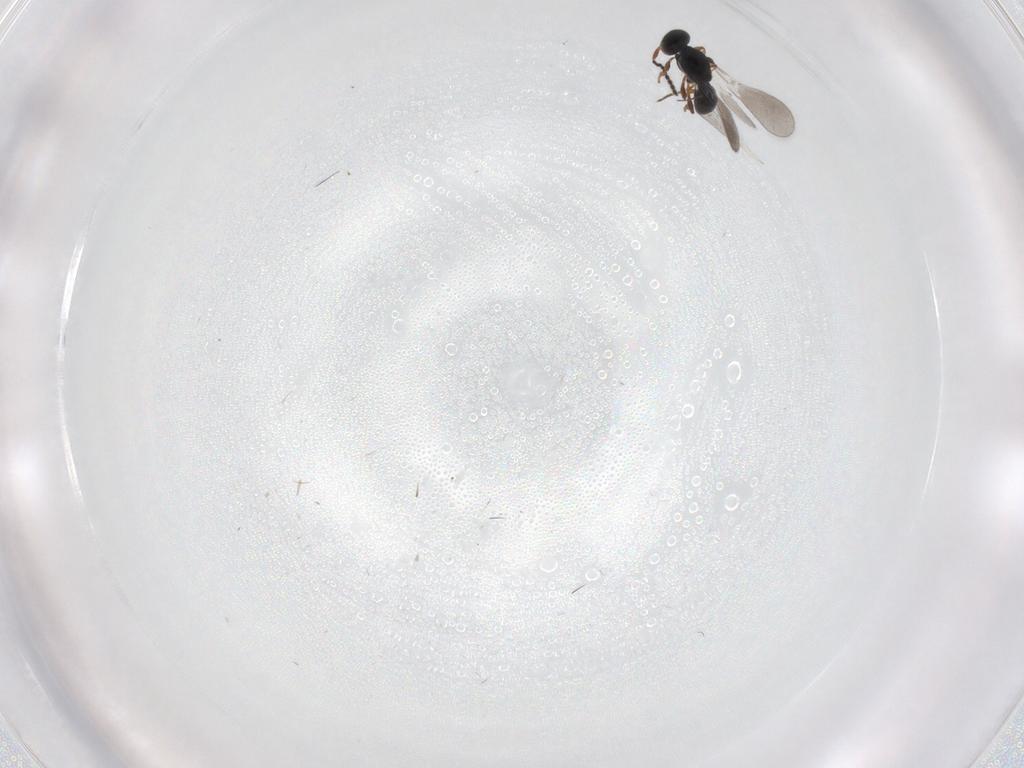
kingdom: Animalia
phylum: Arthropoda
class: Insecta
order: Hymenoptera
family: Platygastridae
